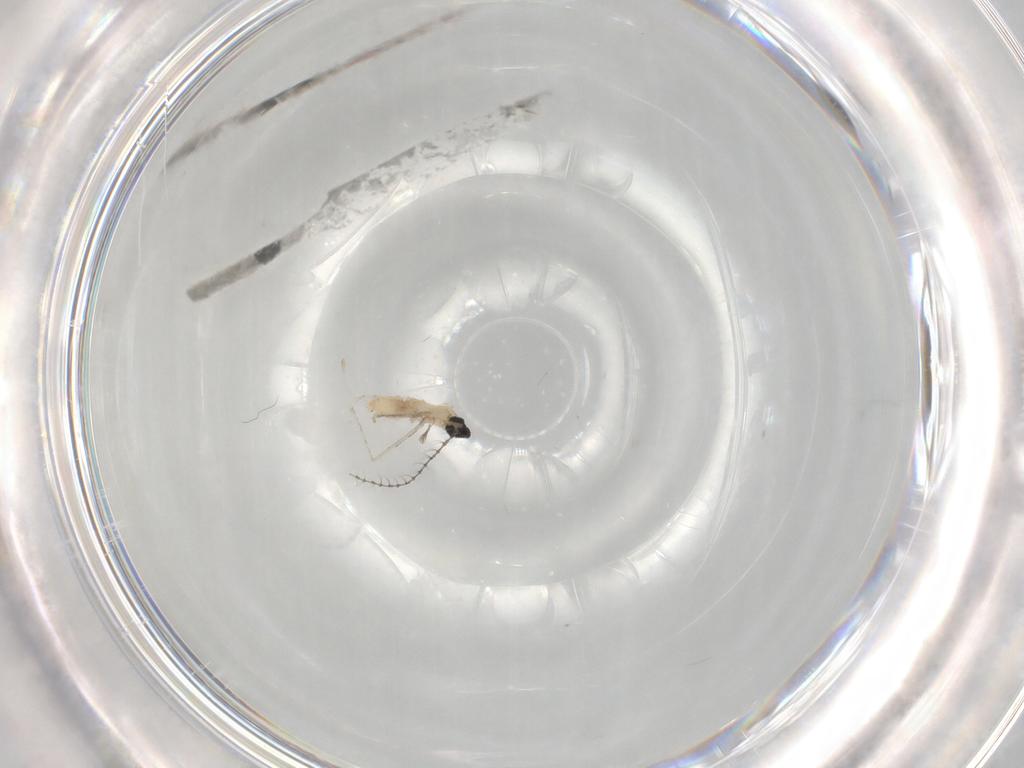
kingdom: Animalia
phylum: Arthropoda
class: Insecta
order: Diptera
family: Cecidomyiidae
